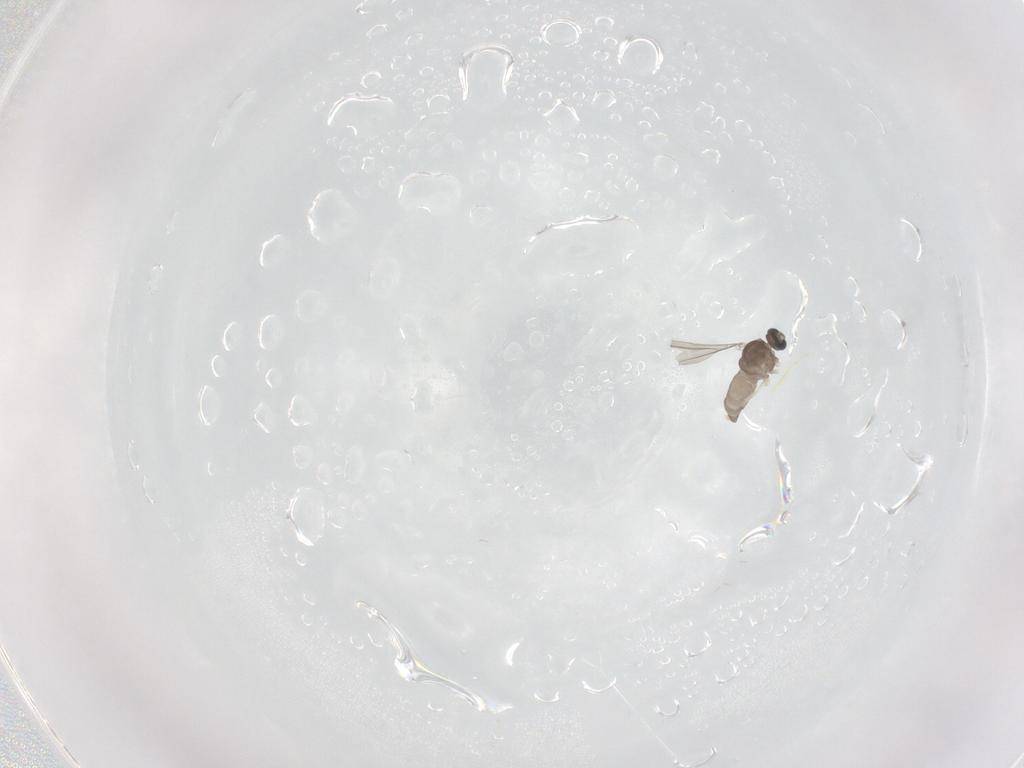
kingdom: Animalia
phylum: Arthropoda
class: Insecta
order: Diptera
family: Cecidomyiidae
